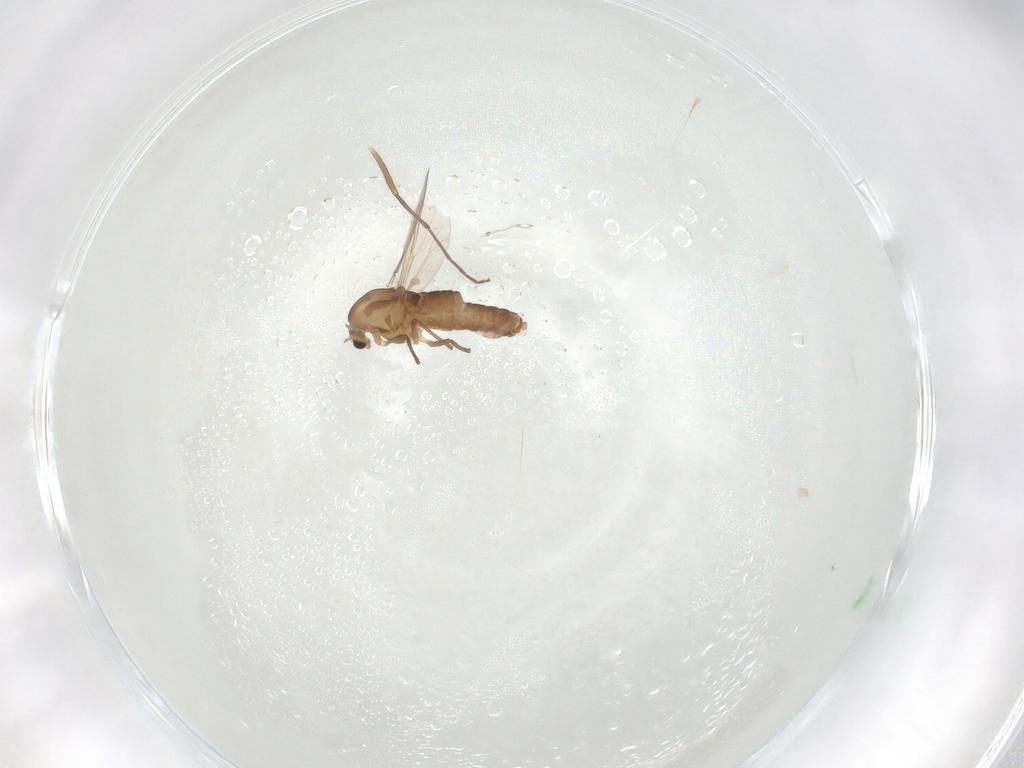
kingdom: Animalia
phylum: Arthropoda
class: Insecta
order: Diptera
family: Chironomidae
